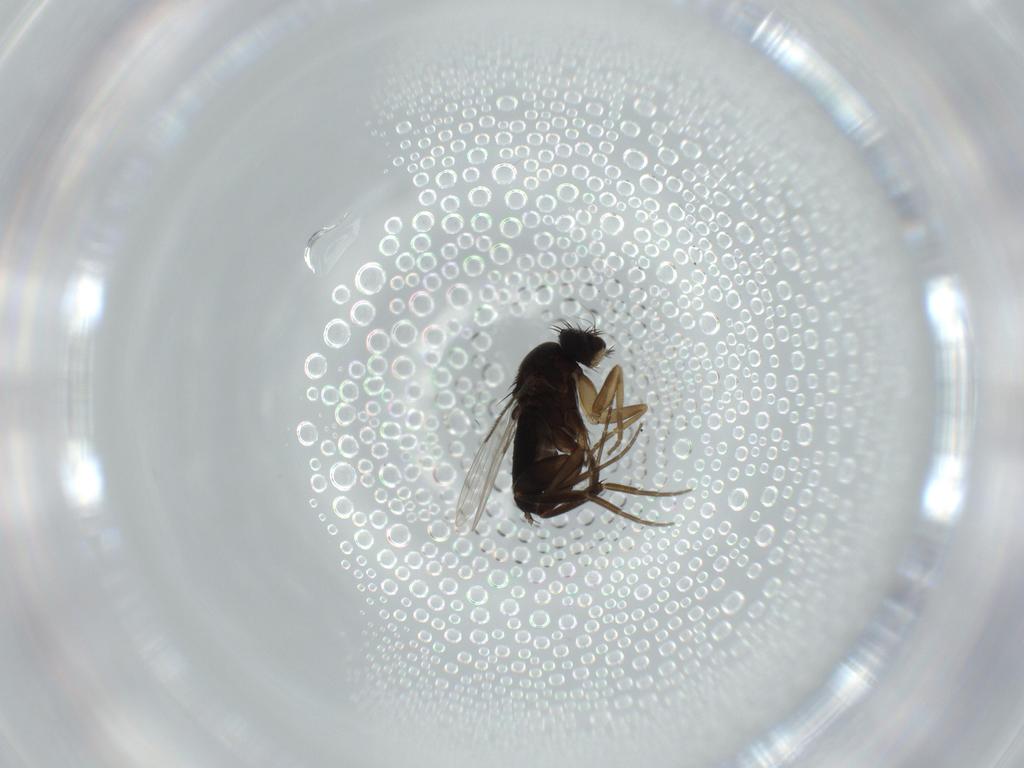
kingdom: Animalia
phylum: Arthropoda
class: Insecta
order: Diptera
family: Phoridae
